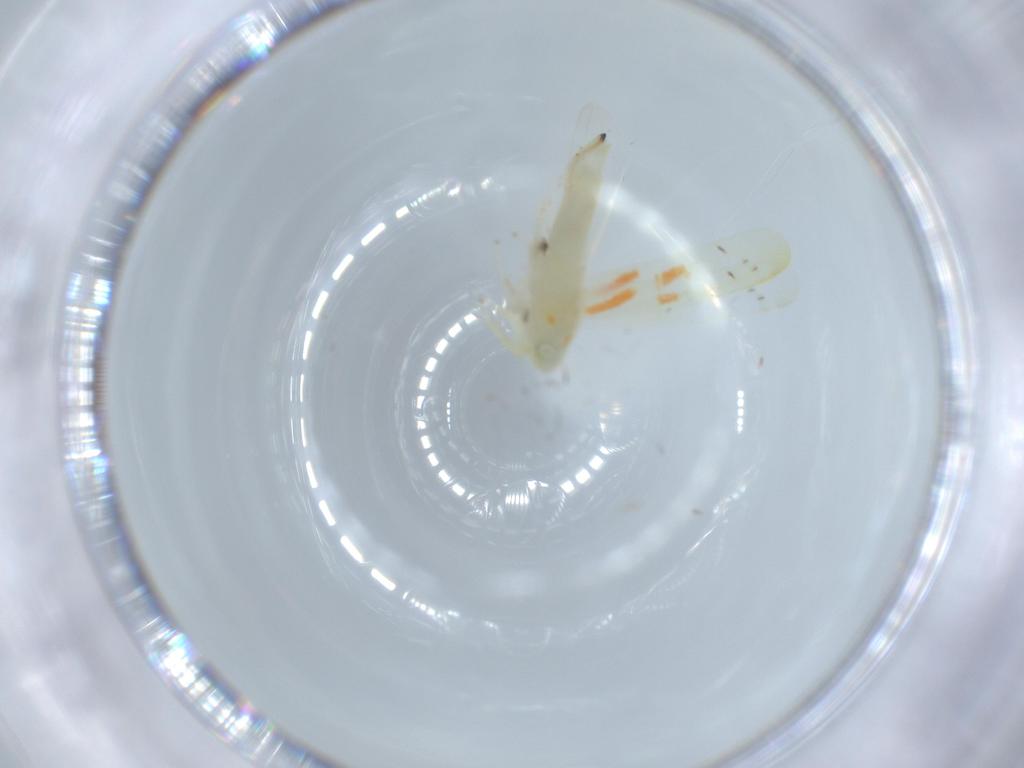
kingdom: Animalia
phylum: Arthropoda
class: Insecta
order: Hemiptera
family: Cicadellidae
